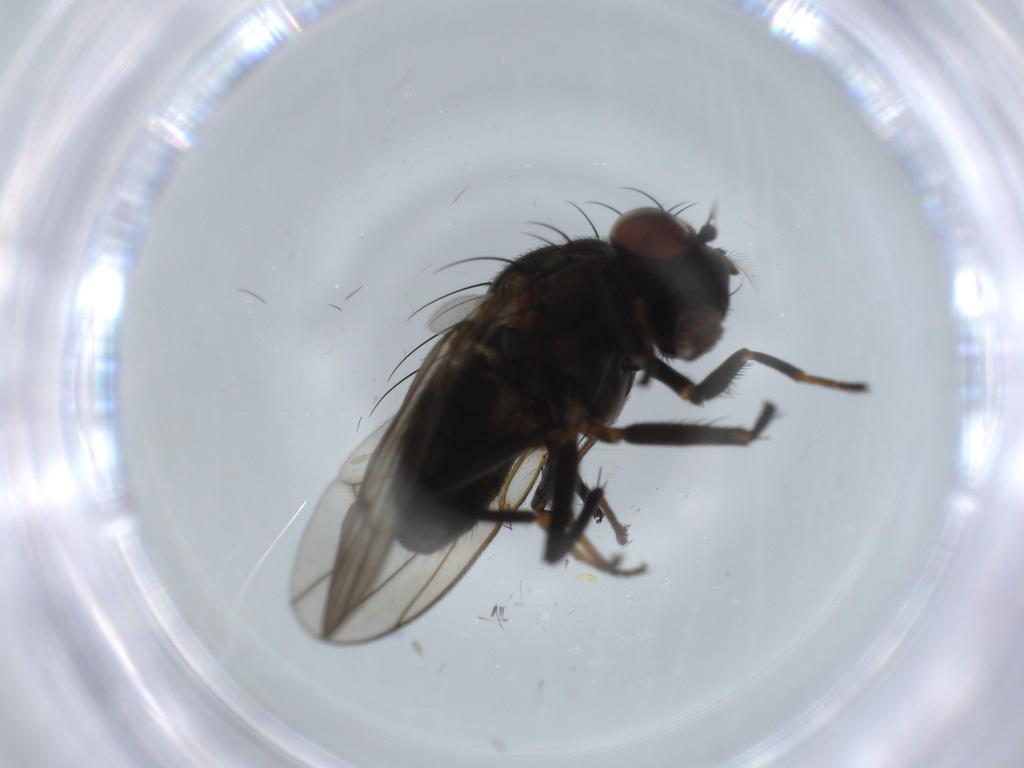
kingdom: Animalia
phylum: Arthropoda
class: Insecta
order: Diptera
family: Ephydridae
